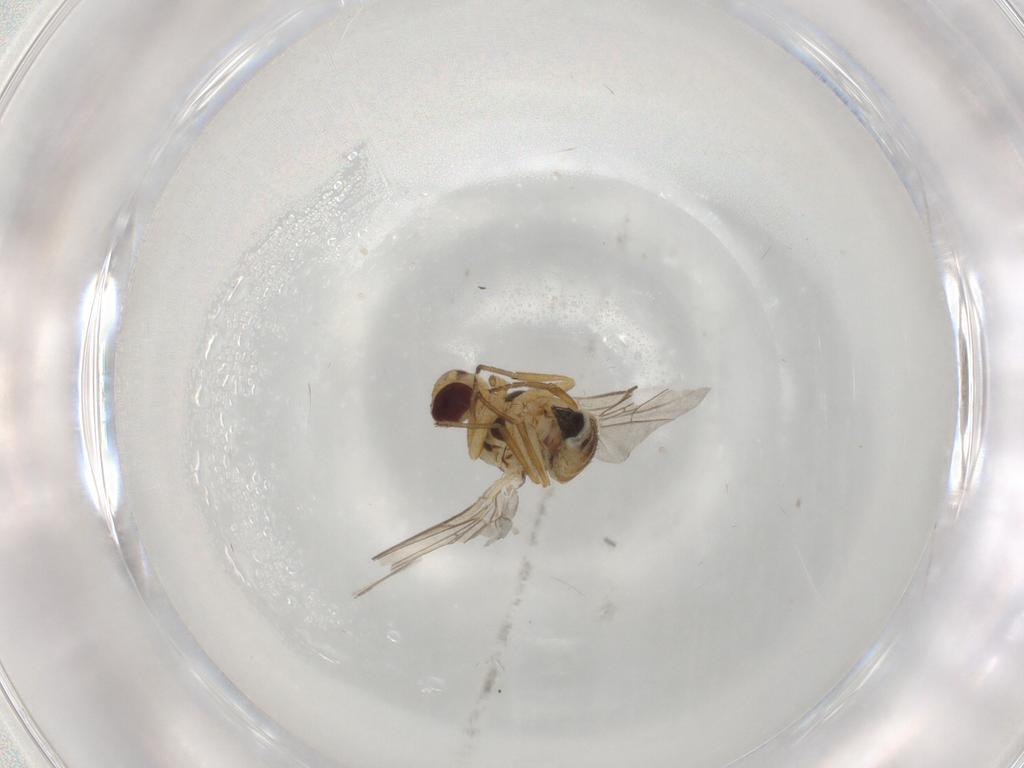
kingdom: Animalia
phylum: Arthropoda
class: Insecta
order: Diptera
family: Agromyzidae
